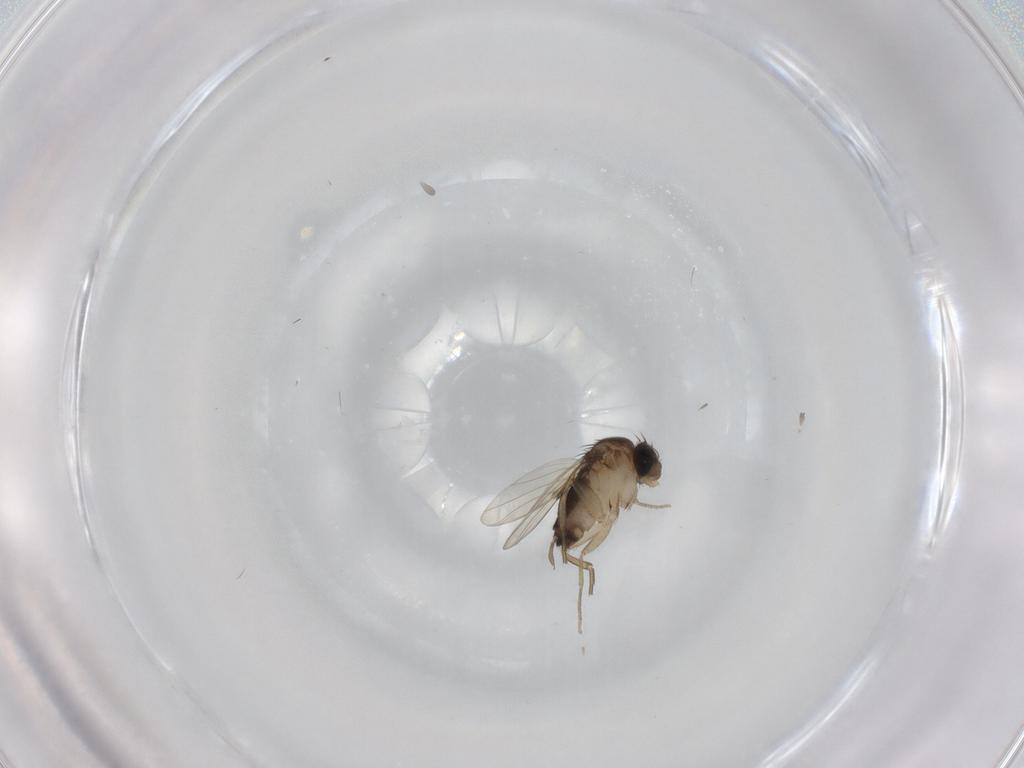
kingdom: Animalia
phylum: Arthropoda
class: Insecta
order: Diptera
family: Cecidomyiidae
